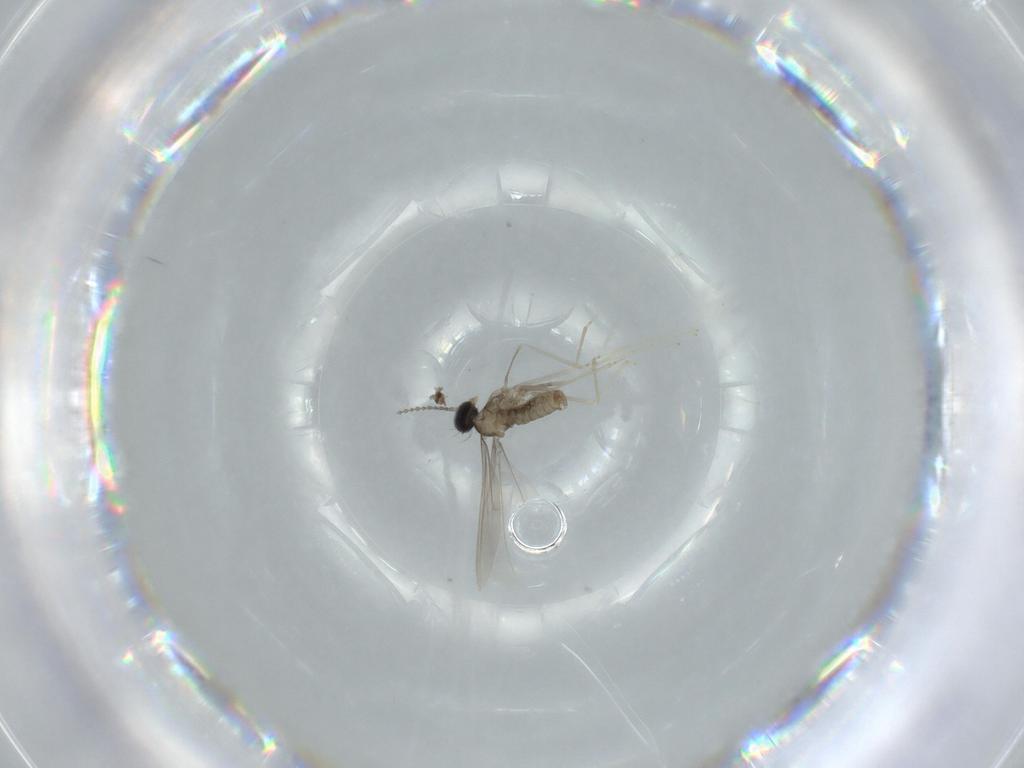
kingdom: Animalia
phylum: Arthropoda
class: Insecta
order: Diptera
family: Cecidomyiidae
